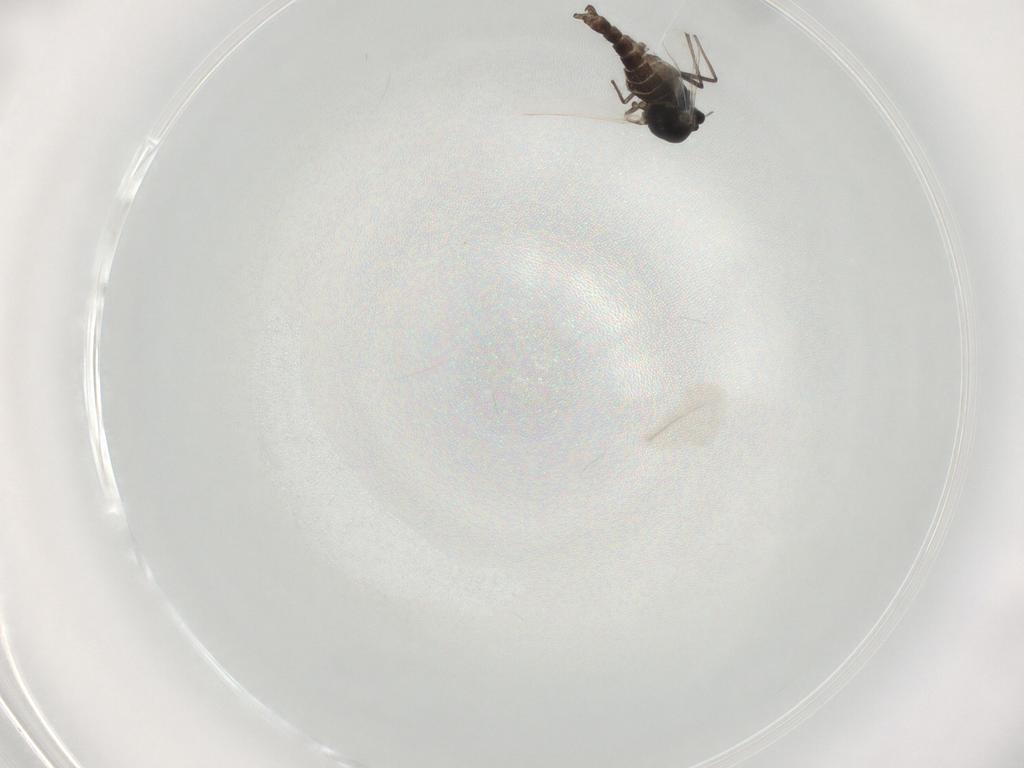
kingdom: Animalia
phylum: Arthropoda
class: Insecta
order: Diptera
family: Chironomidae
